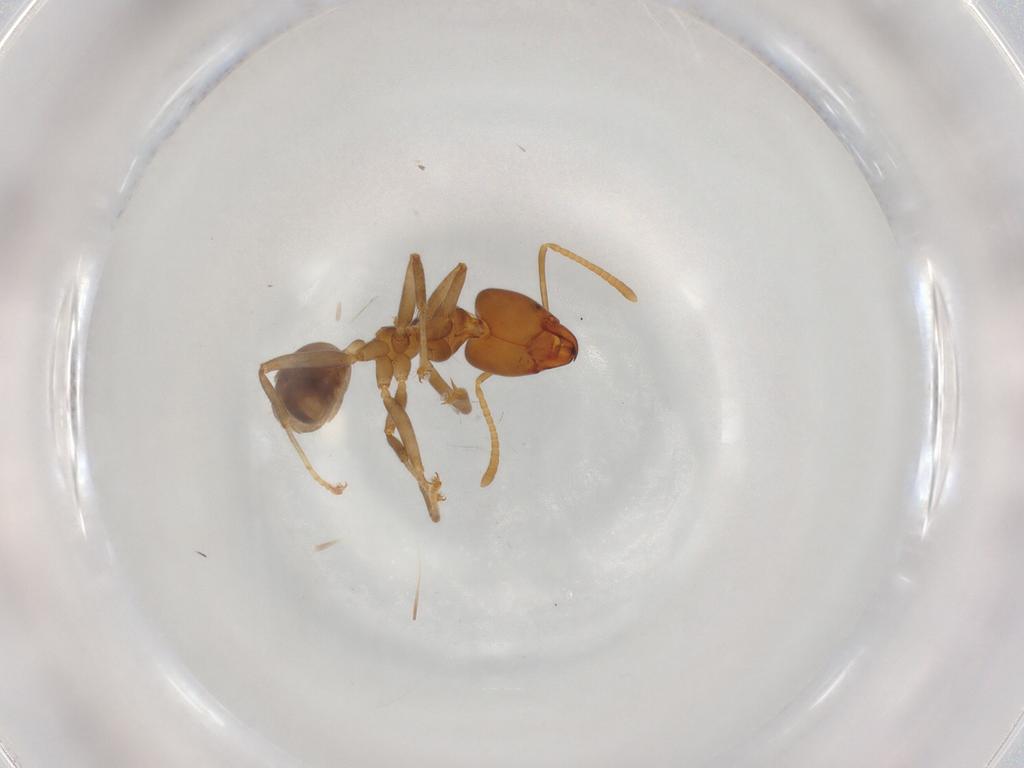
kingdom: Animalia
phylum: Arthropoda
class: Insecta
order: Hymenoptera
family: Formicidae
